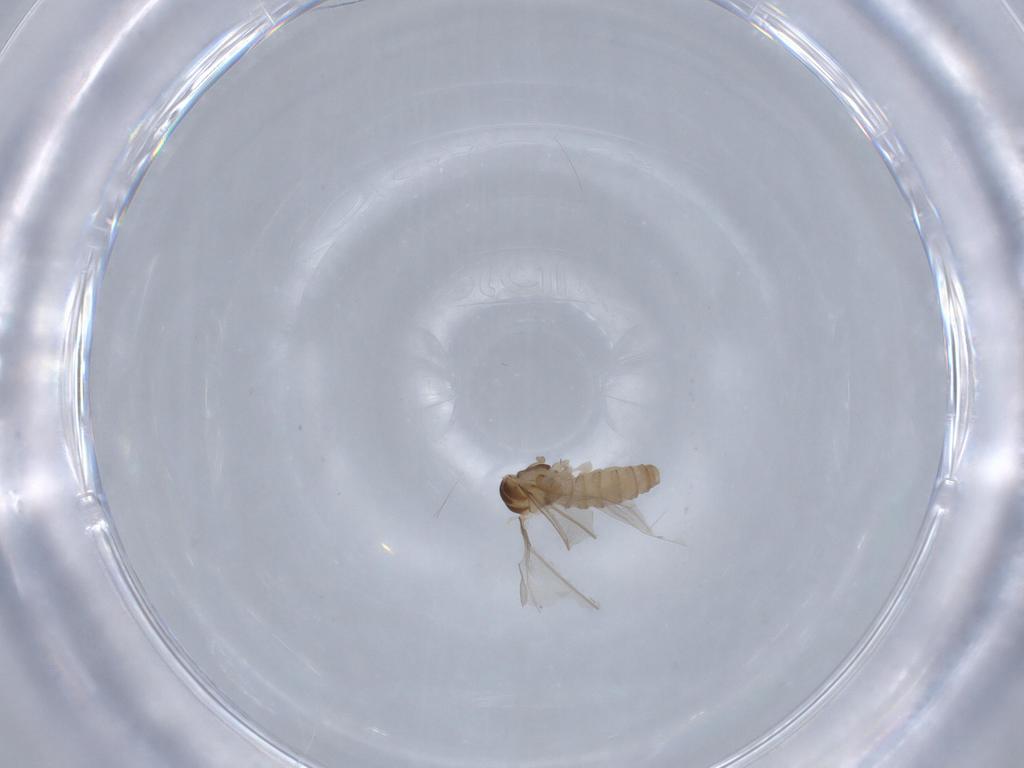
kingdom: Animalia
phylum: Arthropoda
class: Insecta
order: Diptera
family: Cecidomyiidae
